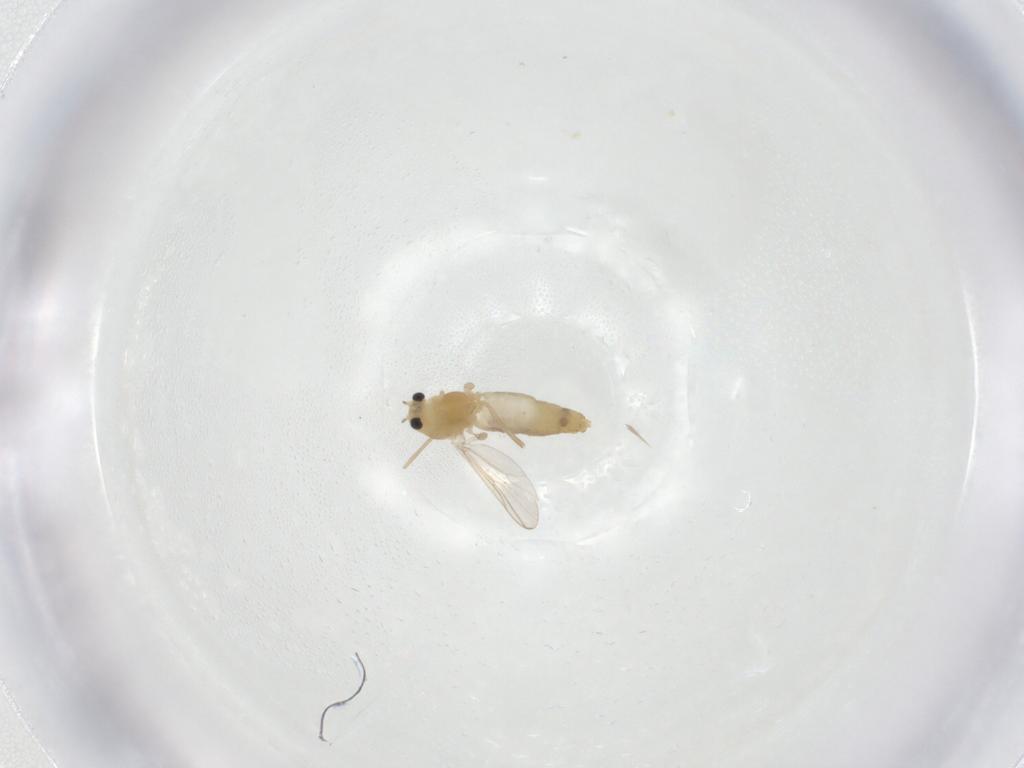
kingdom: Animalia
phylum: Arthropoda
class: Insecta
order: Diptera
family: Chironomidae
